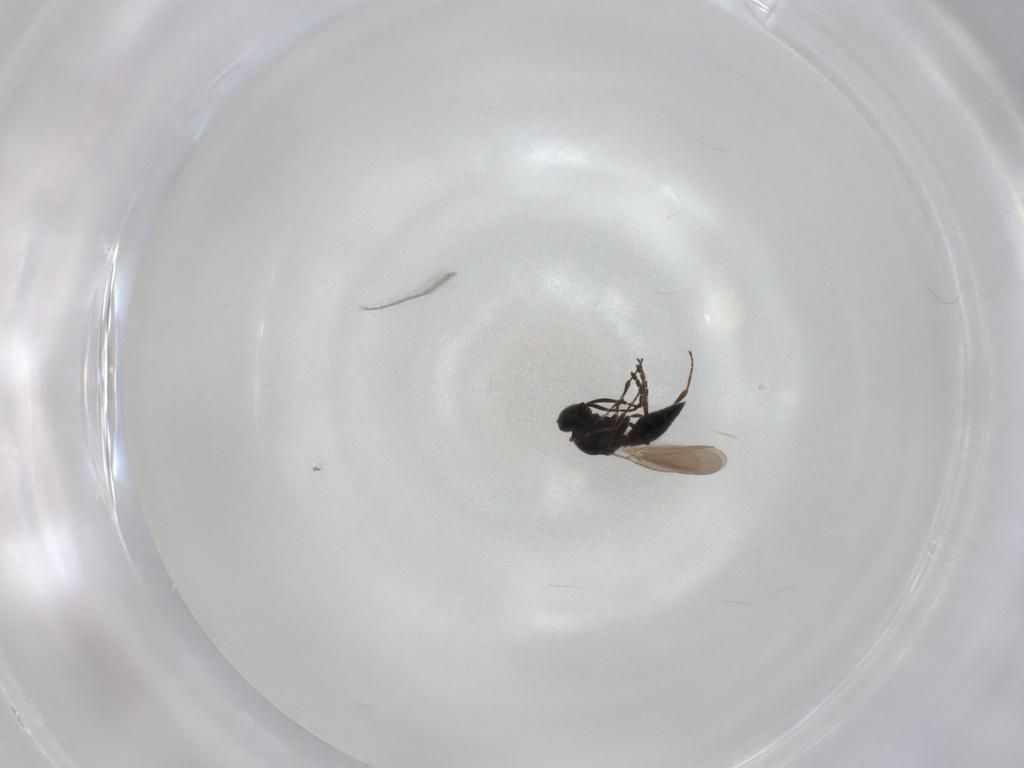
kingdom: Animalia
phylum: Arthropoda
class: Insecta
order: Hymenoptera
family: Platygastridae
